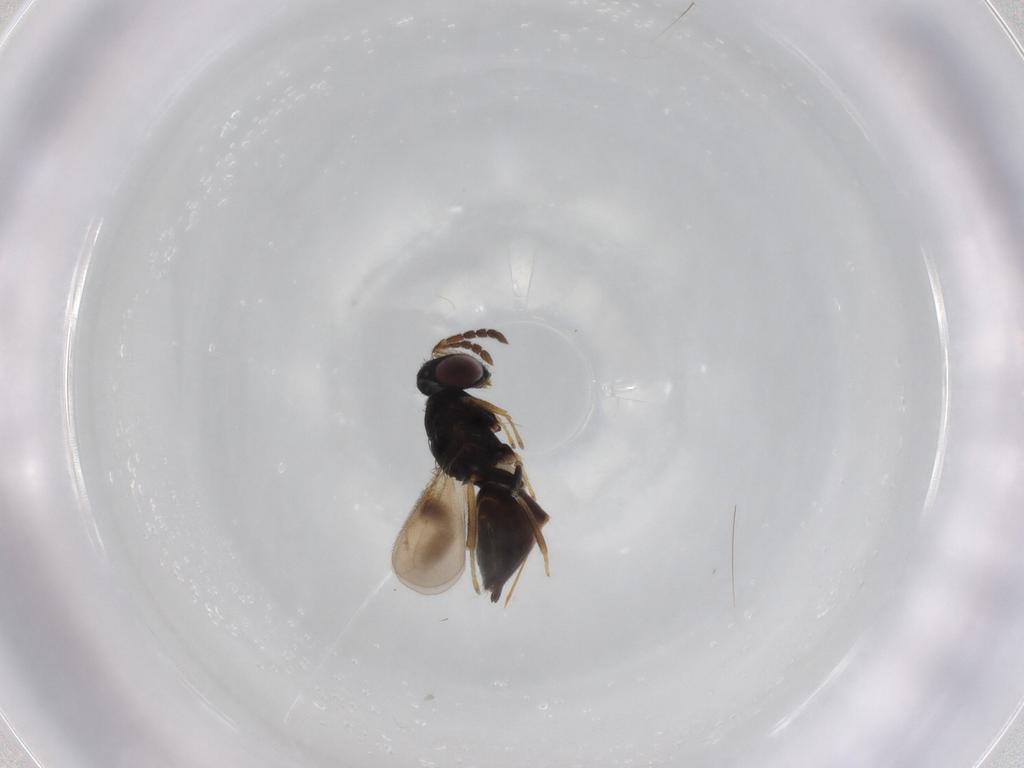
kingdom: Animalia
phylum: Arthropoda
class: Insecta
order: Hymenoptera
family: Eulophidae
